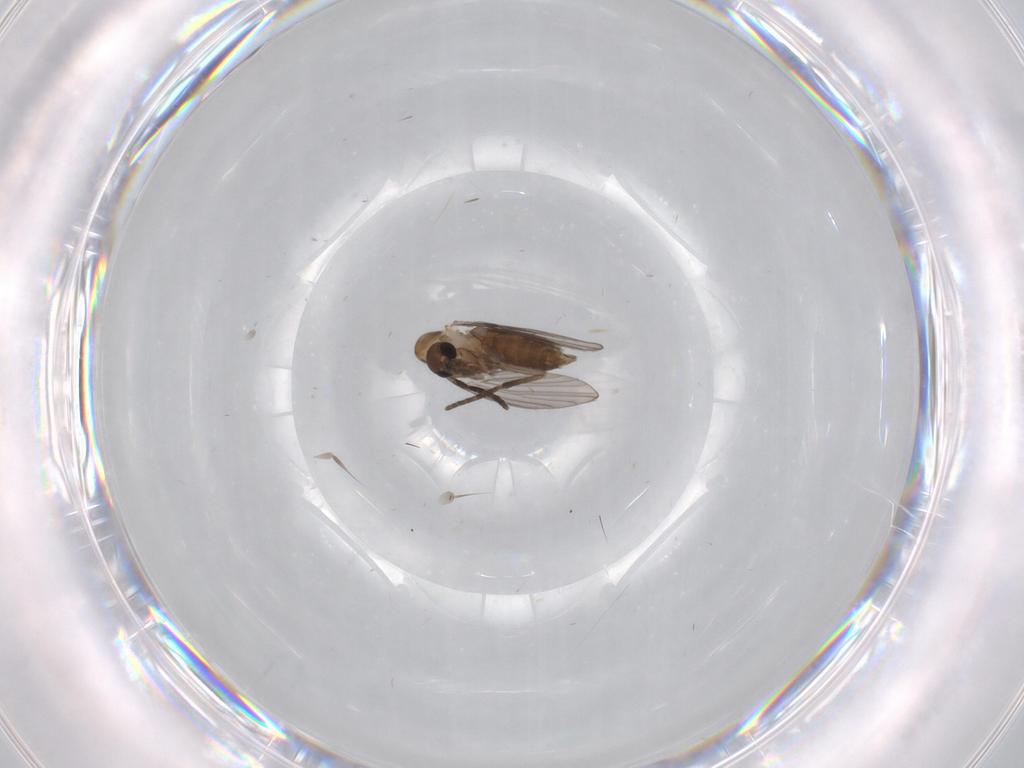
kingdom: Animalia
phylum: Arthropoda
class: Insecta
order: Diptera
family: Psychodidae
